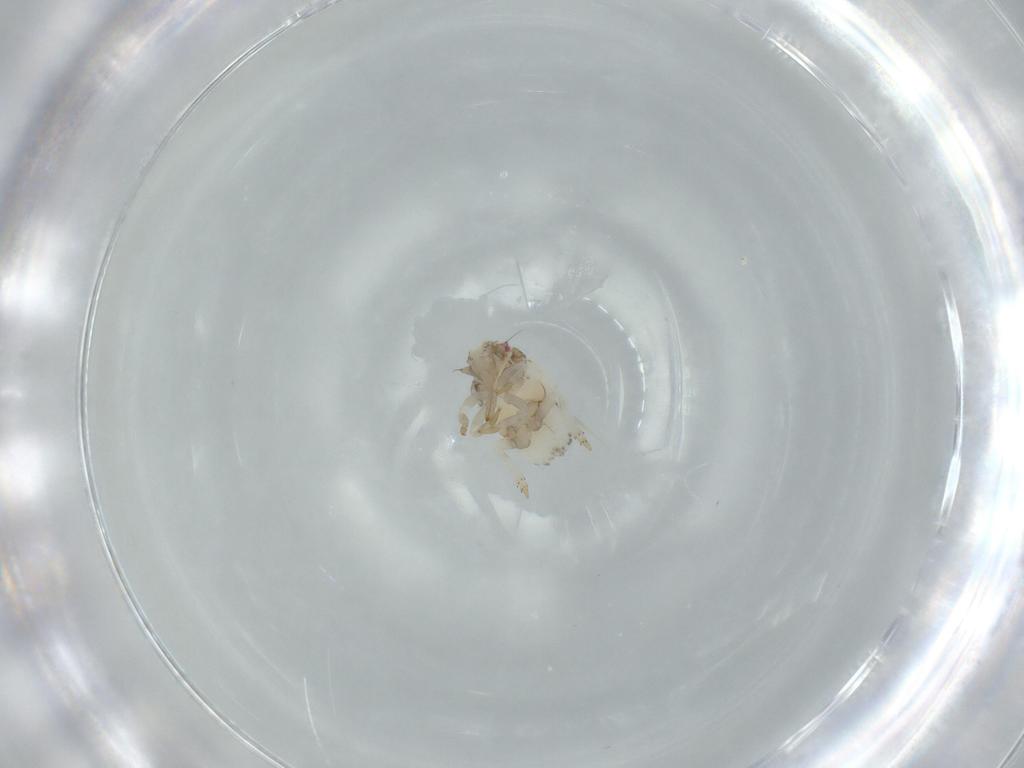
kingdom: Animalia
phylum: Arthropoda
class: Insecta
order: Hemiptera
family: Acanaloniidae
